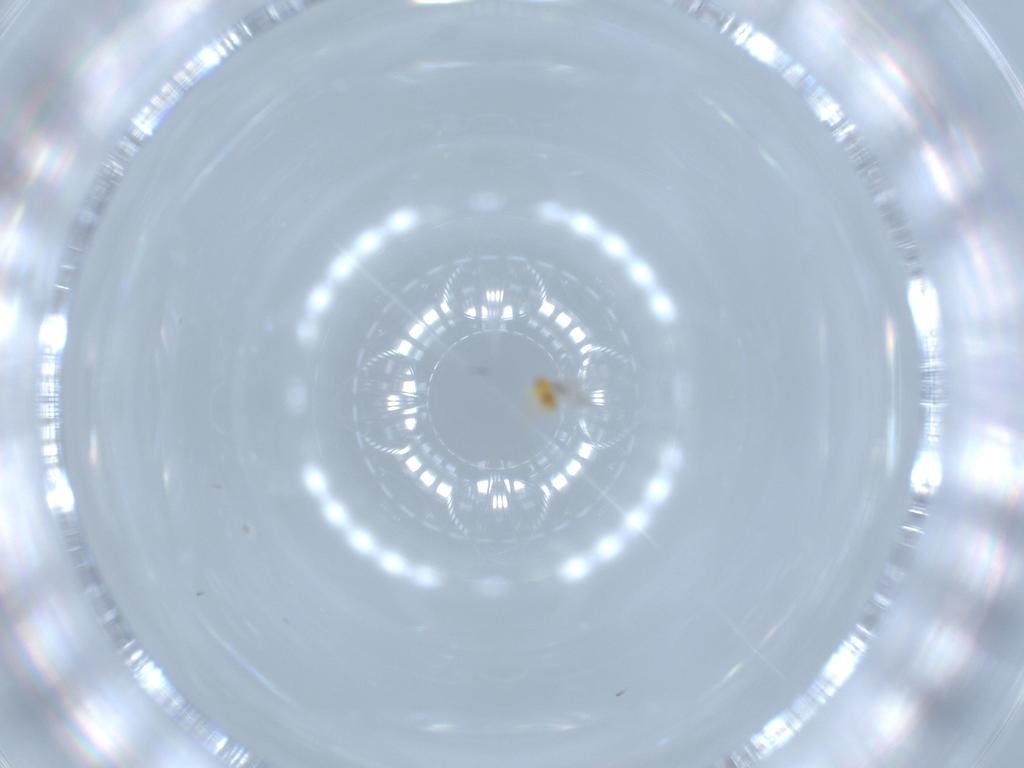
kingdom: Animalia
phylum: Arthropoda
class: Insecta
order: Hymenoptera
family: Trichogrammatidae
